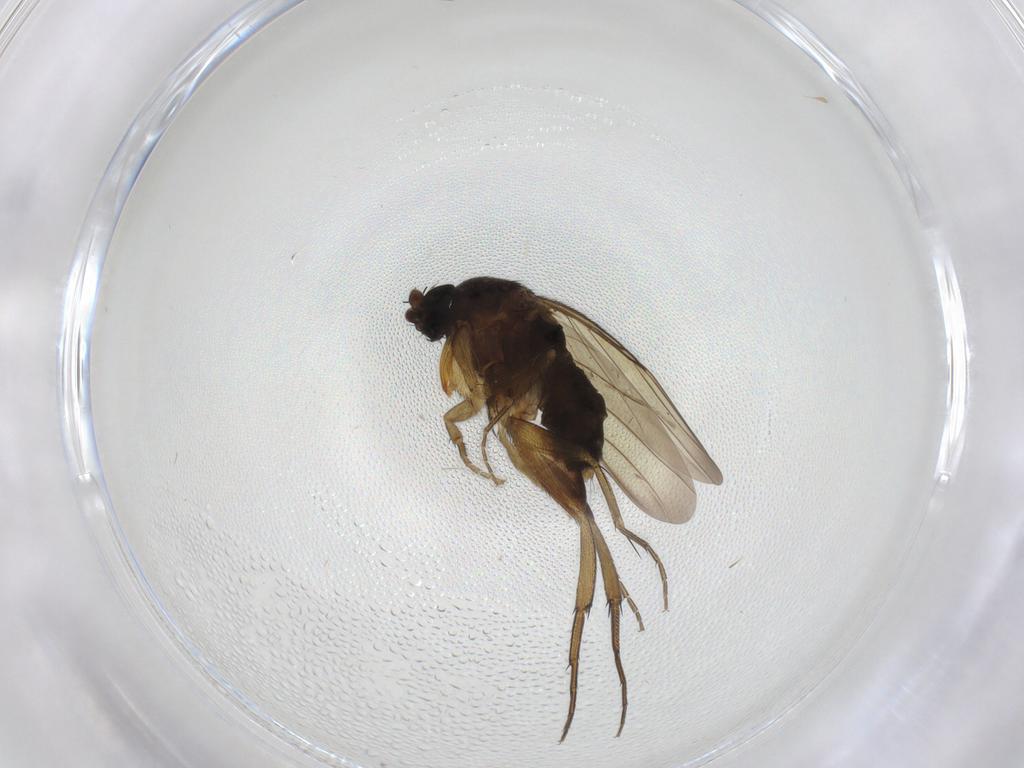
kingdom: Animalia
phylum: Arthropoda
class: Insecta
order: Diptera
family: Phoridae
